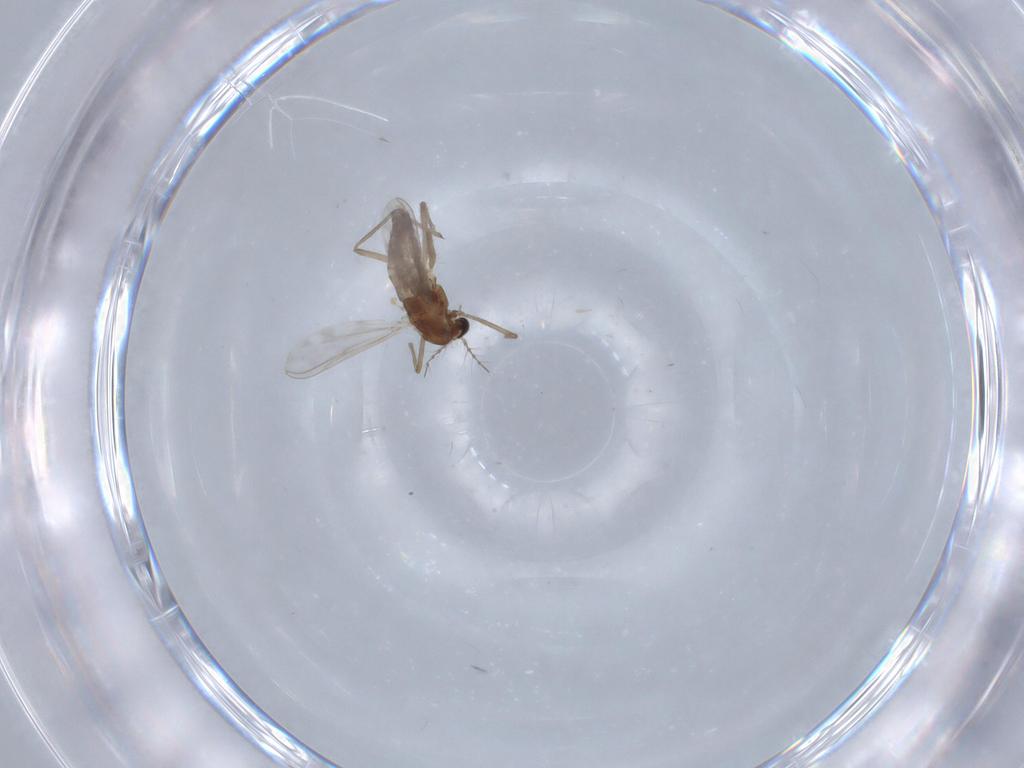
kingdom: Animalia
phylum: Arthropoda
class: Insecta
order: Diptera
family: Chironomidae
